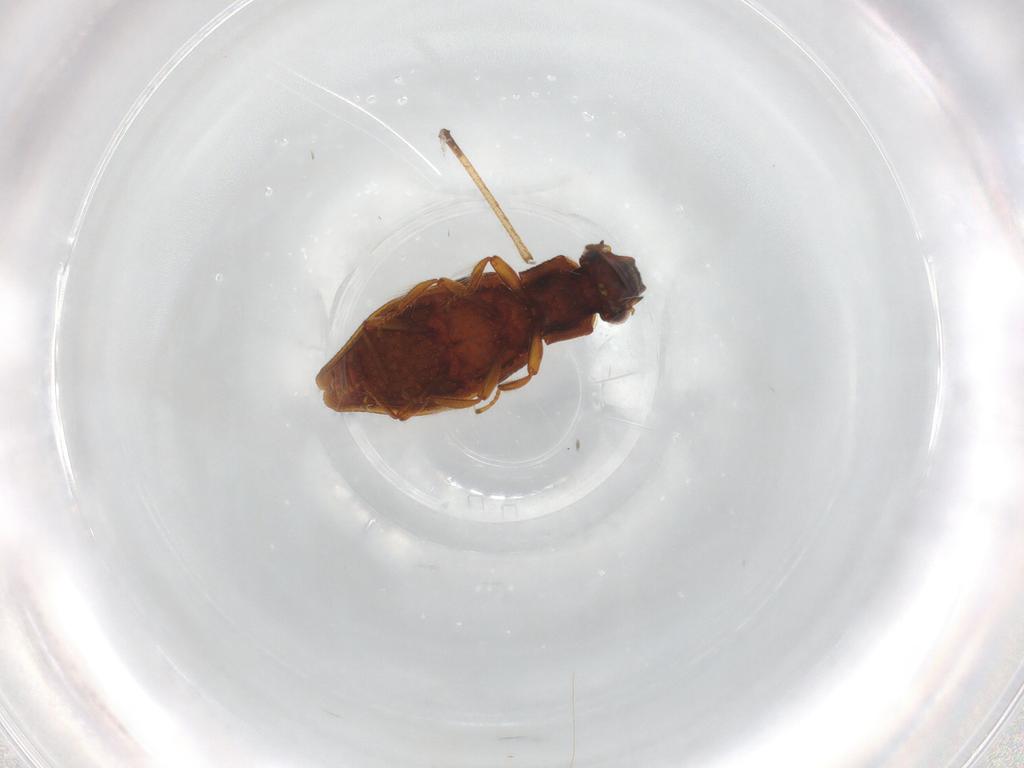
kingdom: Animalia
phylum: Arthropoda
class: Insecta
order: Coleoptera
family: Hydrophilidae
